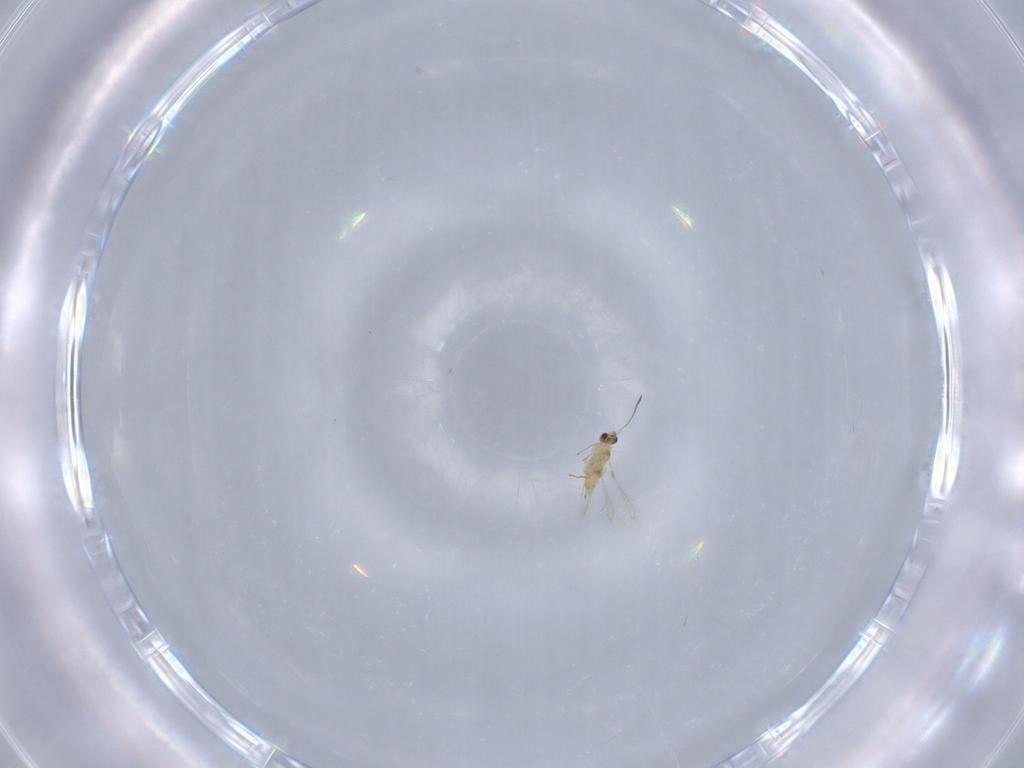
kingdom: Animalia
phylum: Arthropoda
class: Insecta
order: Hymenoptera
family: Mymaridae
